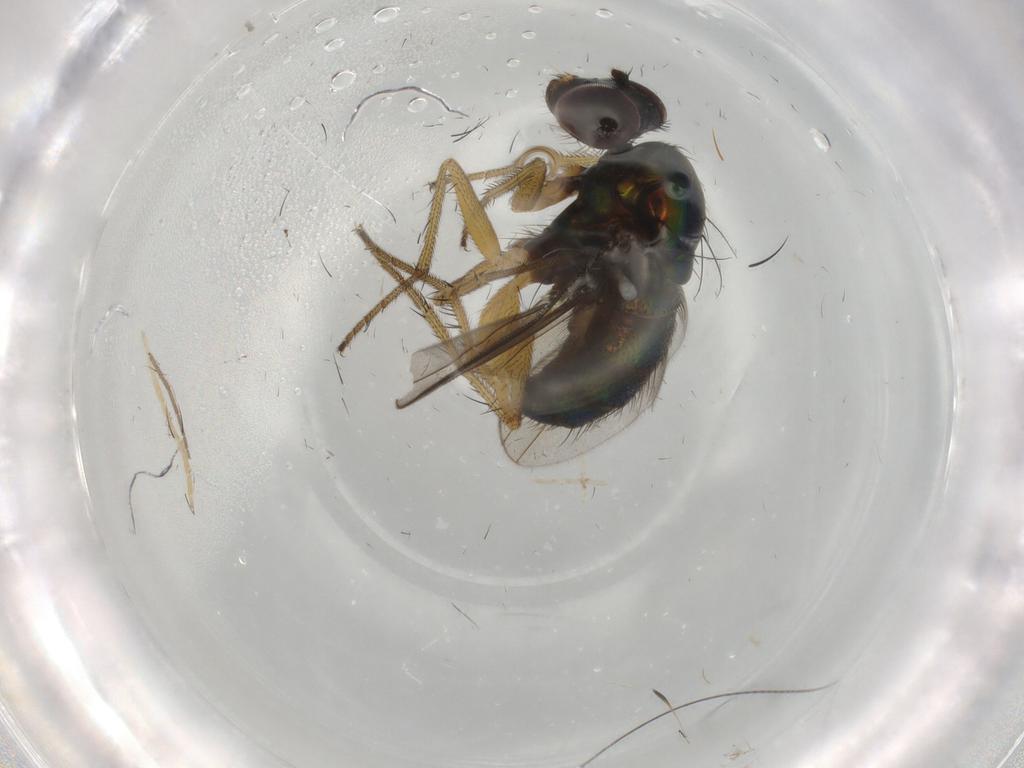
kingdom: Animalia
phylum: Arthropoda
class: Insecta
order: Diptera
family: Dolichopodidae
